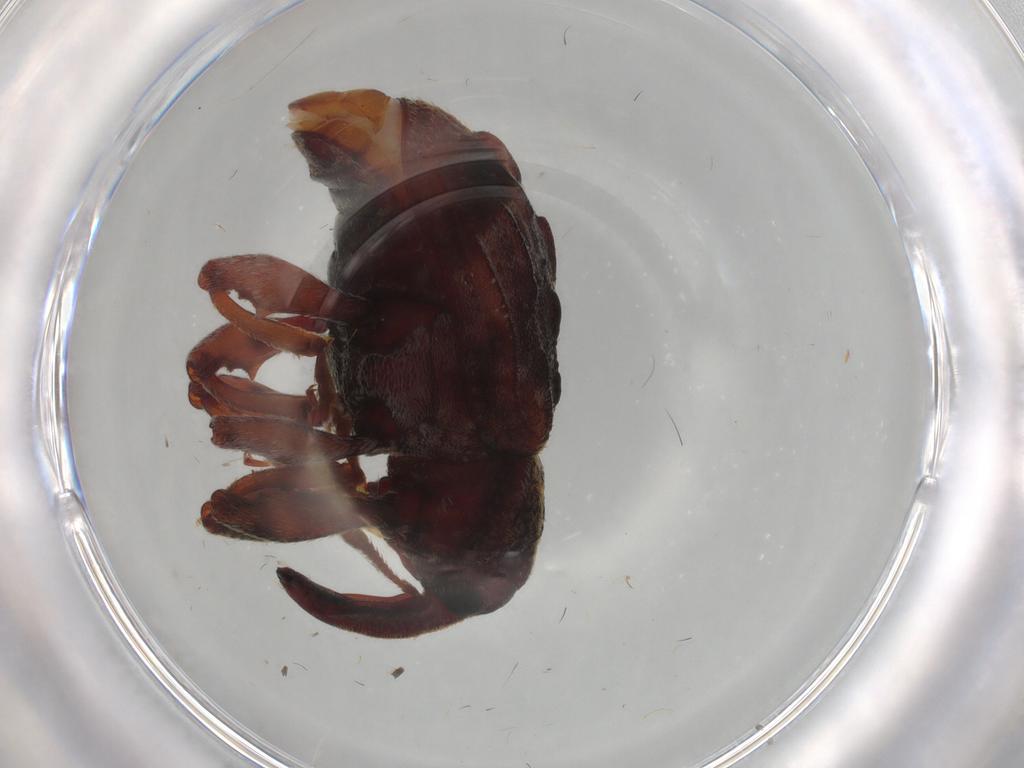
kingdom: Animalia
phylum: Arthropoda
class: Insecta
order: Coleoptera
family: Curculionidae
